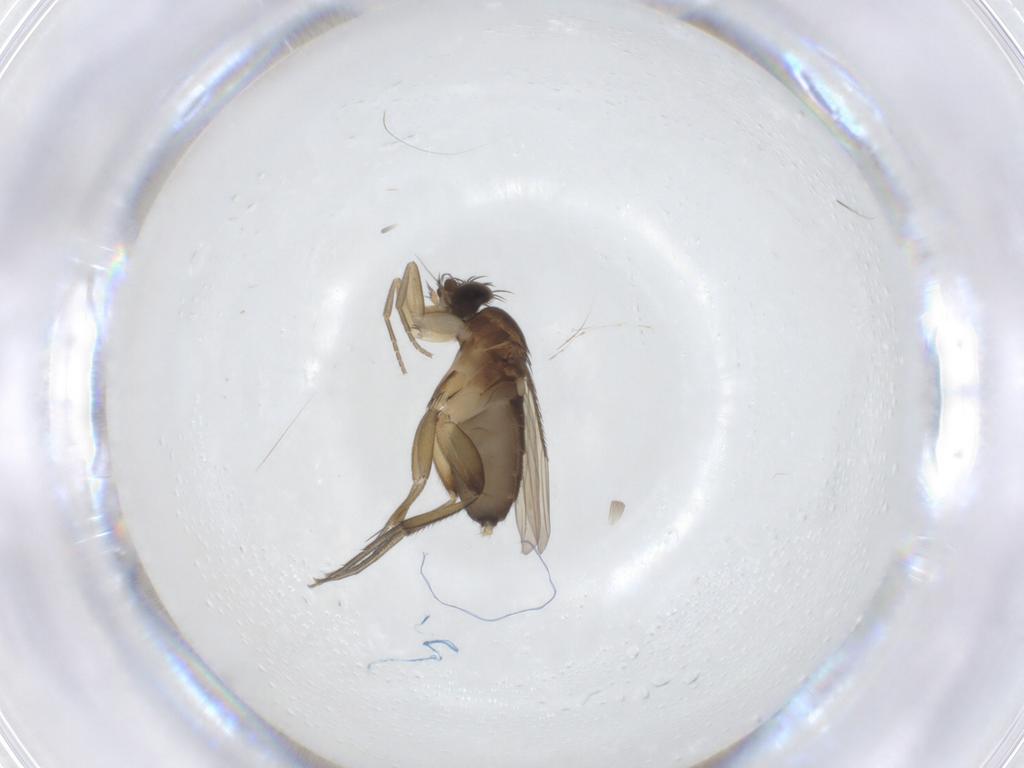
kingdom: Animalia
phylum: Arthropoda
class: Insecta
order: Diptera
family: Phoridae
